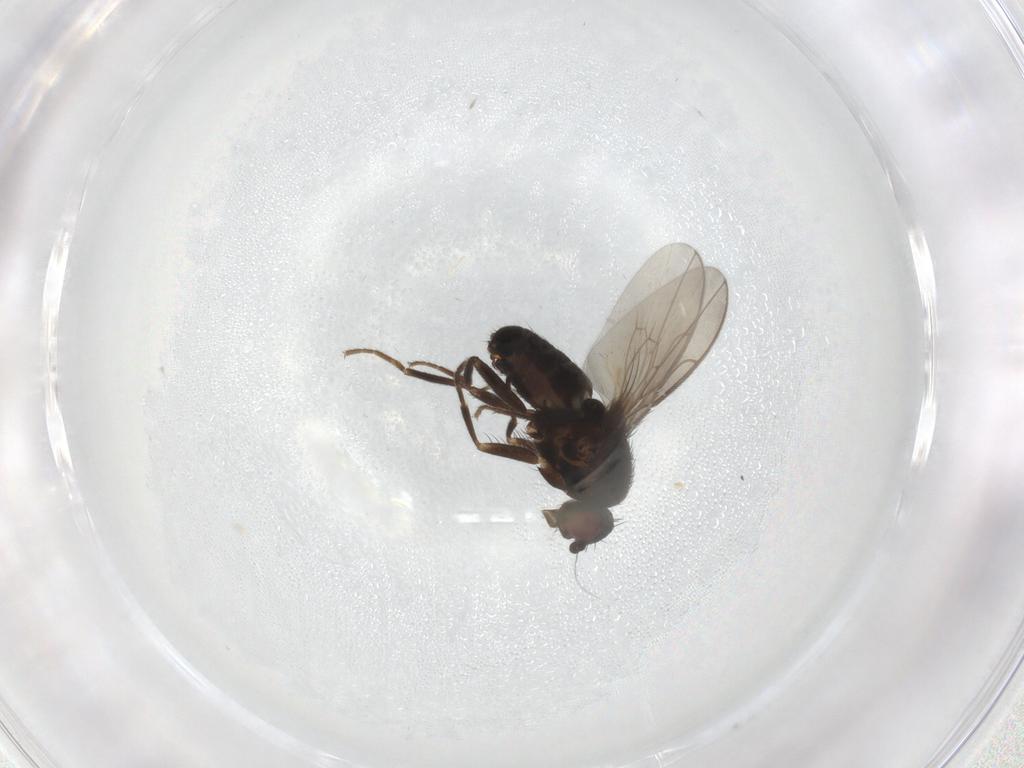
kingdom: Animalia
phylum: Arthropoda
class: Insecta
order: Diptera
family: Sphaeroceridae
